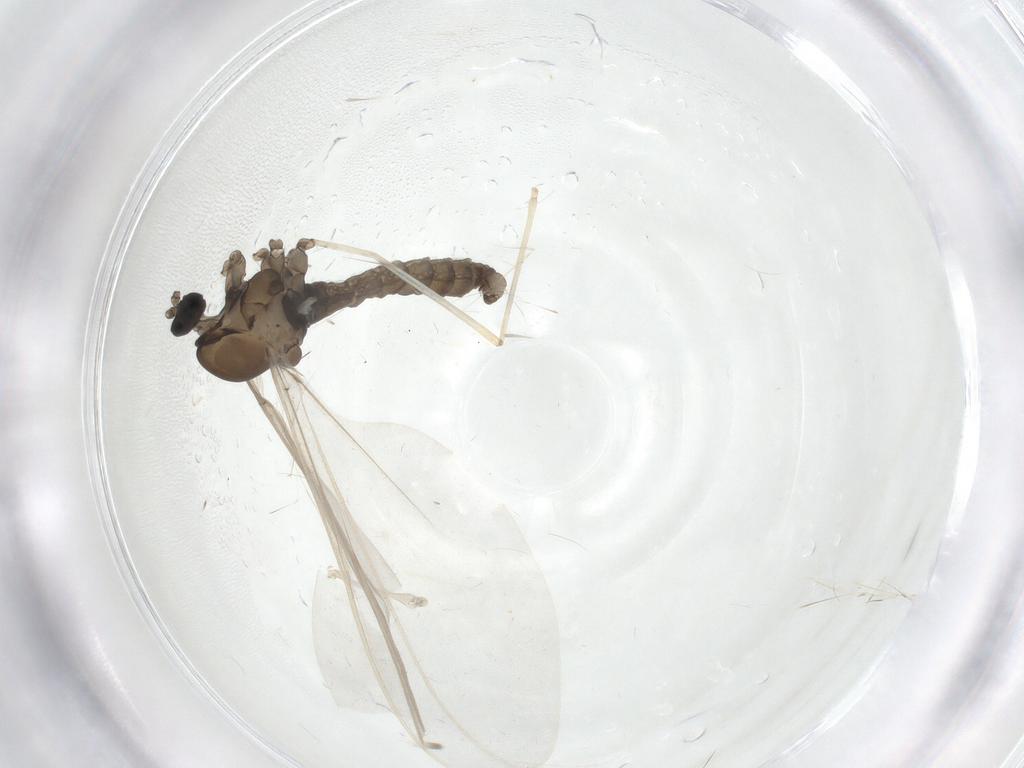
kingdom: Animalia
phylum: Arthropoda
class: Insecta
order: Diptera
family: Cecidomyiidae
